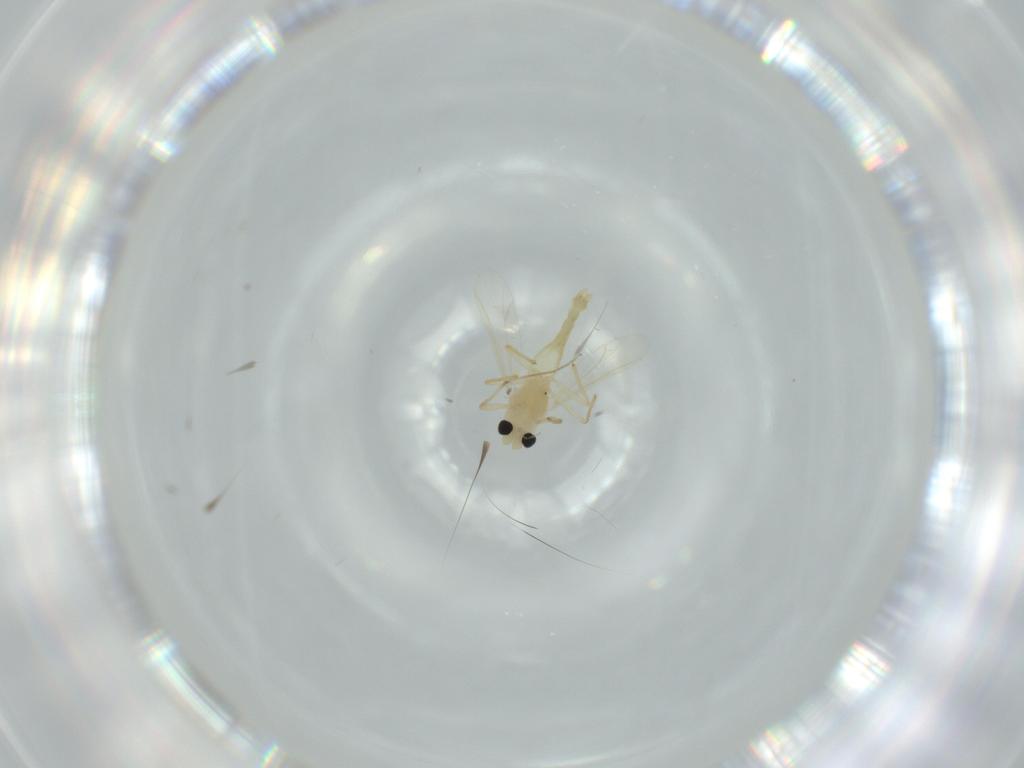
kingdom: Animalia
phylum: Arthropoda
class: Insecta
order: Diptera
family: Chironomidae
